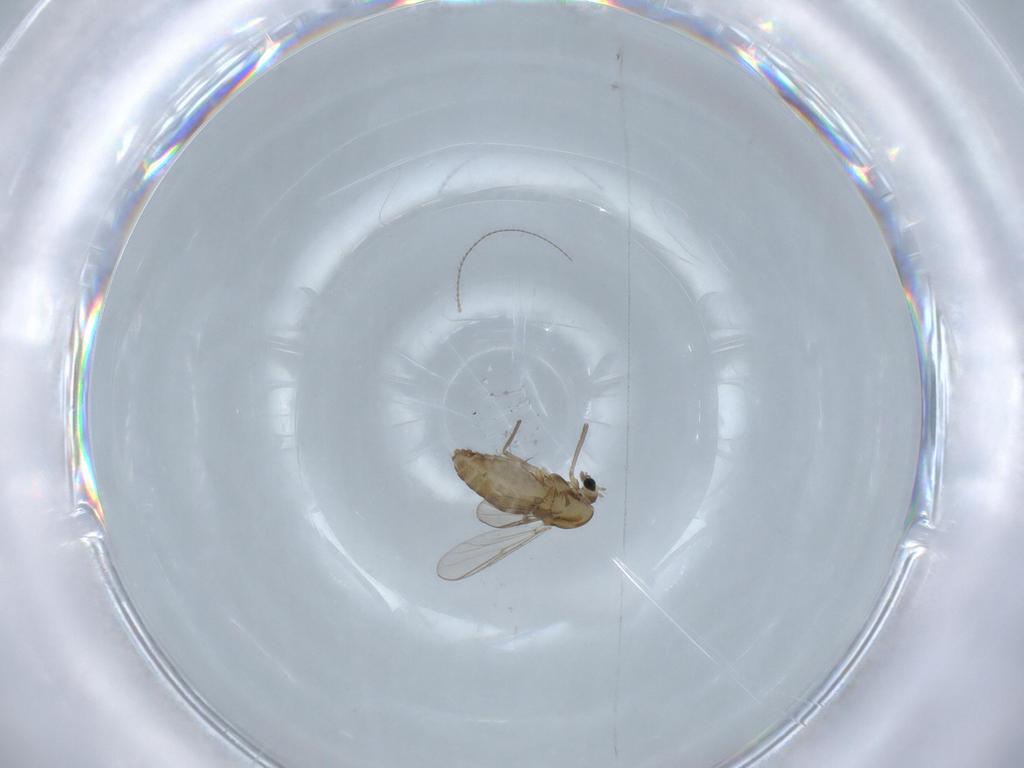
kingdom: Animalia
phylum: Arthropoda
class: Insecta
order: Diptera
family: Chironomidae
